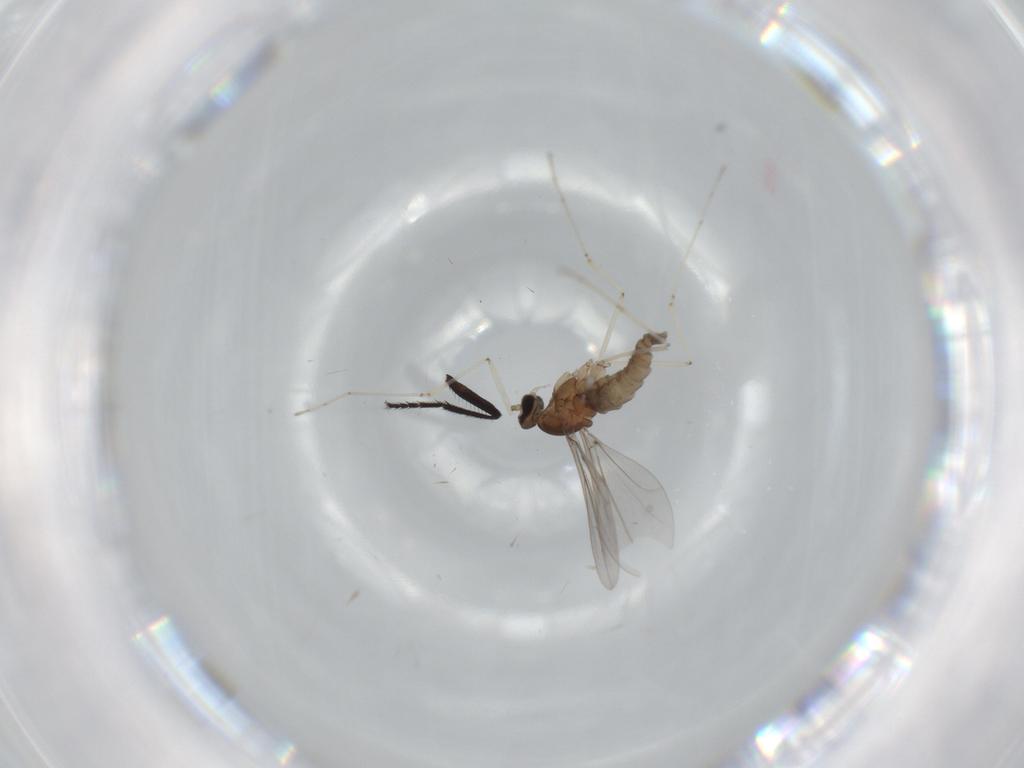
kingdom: Animalia
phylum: Arthropoda
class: Insecta
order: Diptera
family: Cecidomyiidae
